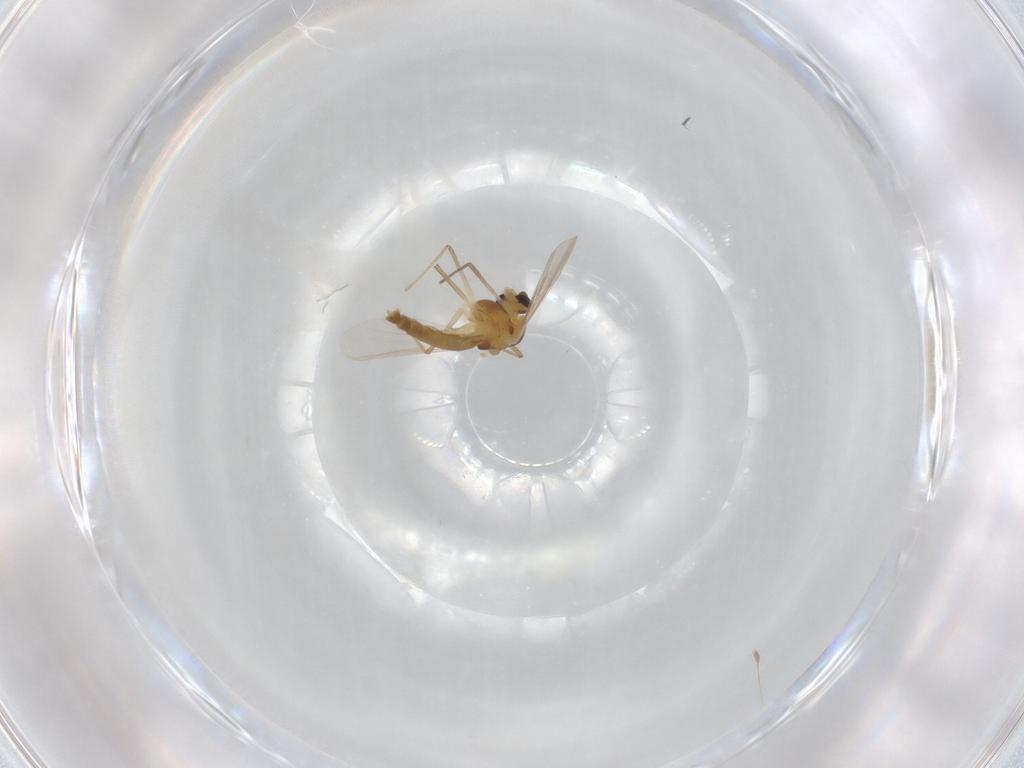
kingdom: Animalia
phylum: Arthropoda
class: Insecta
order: Diptera
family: Chironomidae
